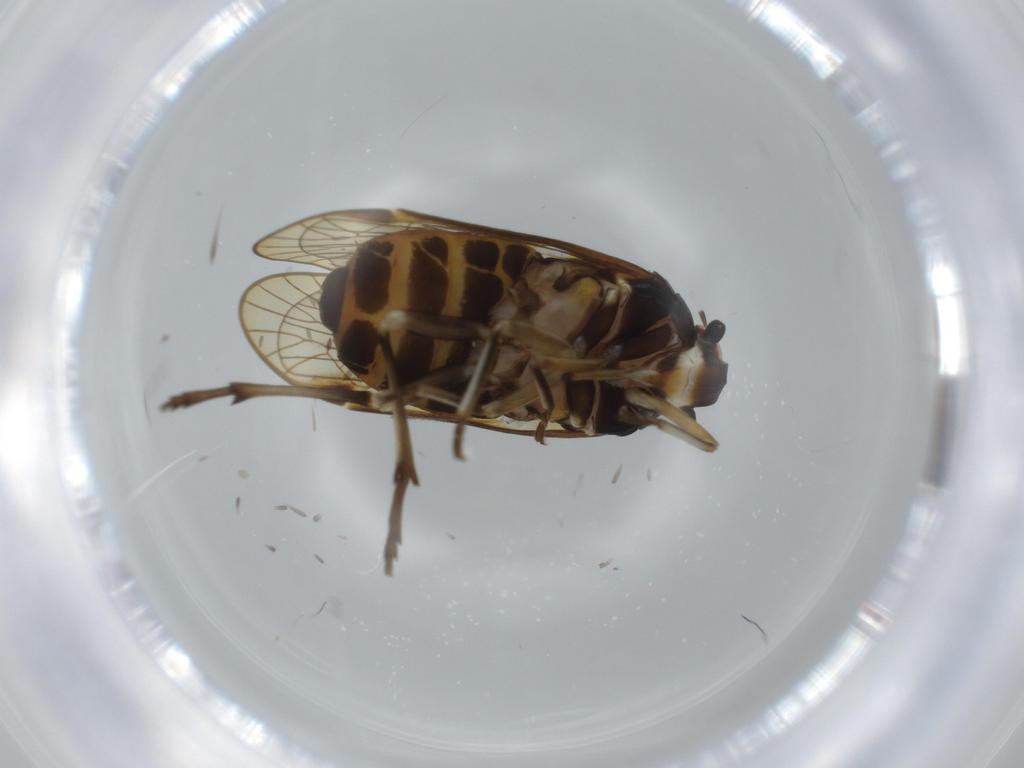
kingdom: Animalia
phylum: Arthropoda
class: Insecta
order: Hemiptera
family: Kinnaridae
